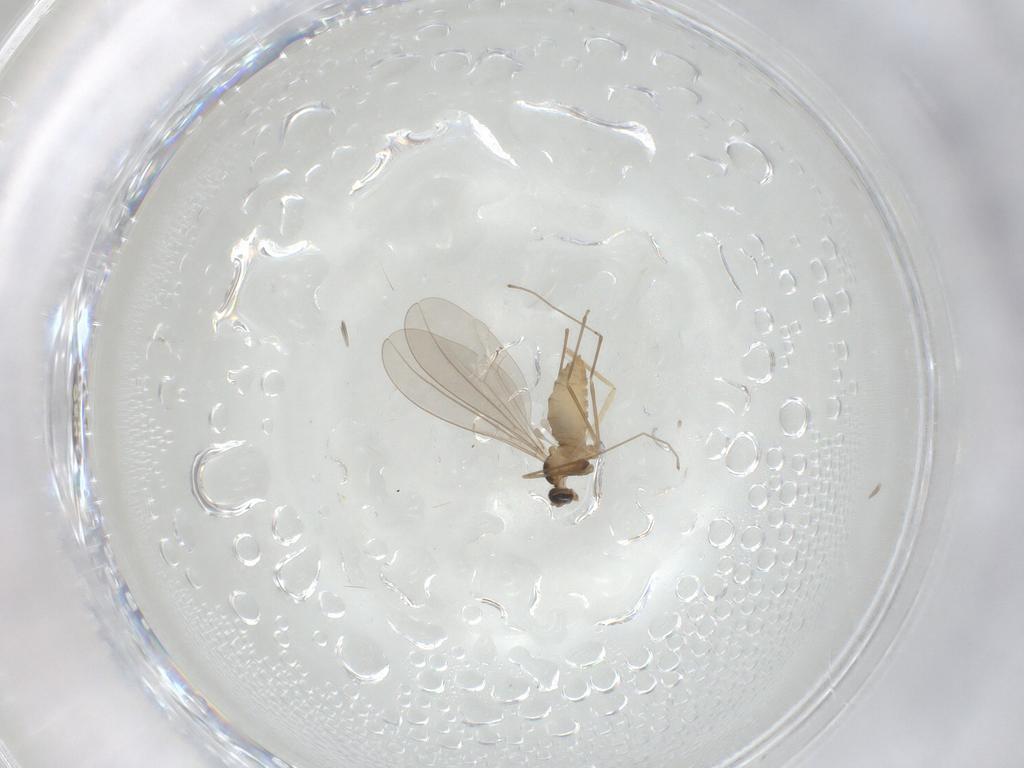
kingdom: Animalia
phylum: Arthropoda
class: Insecta
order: Diptera
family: Cecidomyiidae
